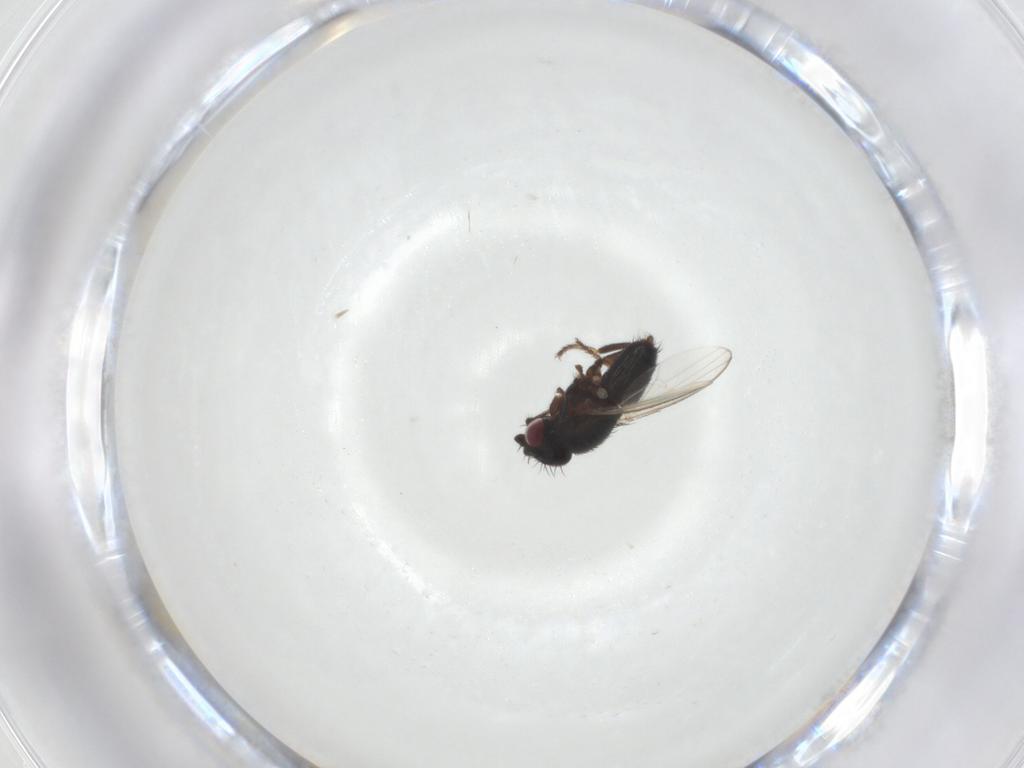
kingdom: Animalia
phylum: Arthropoda
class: Insecta
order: Diptera
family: Milichiidae
